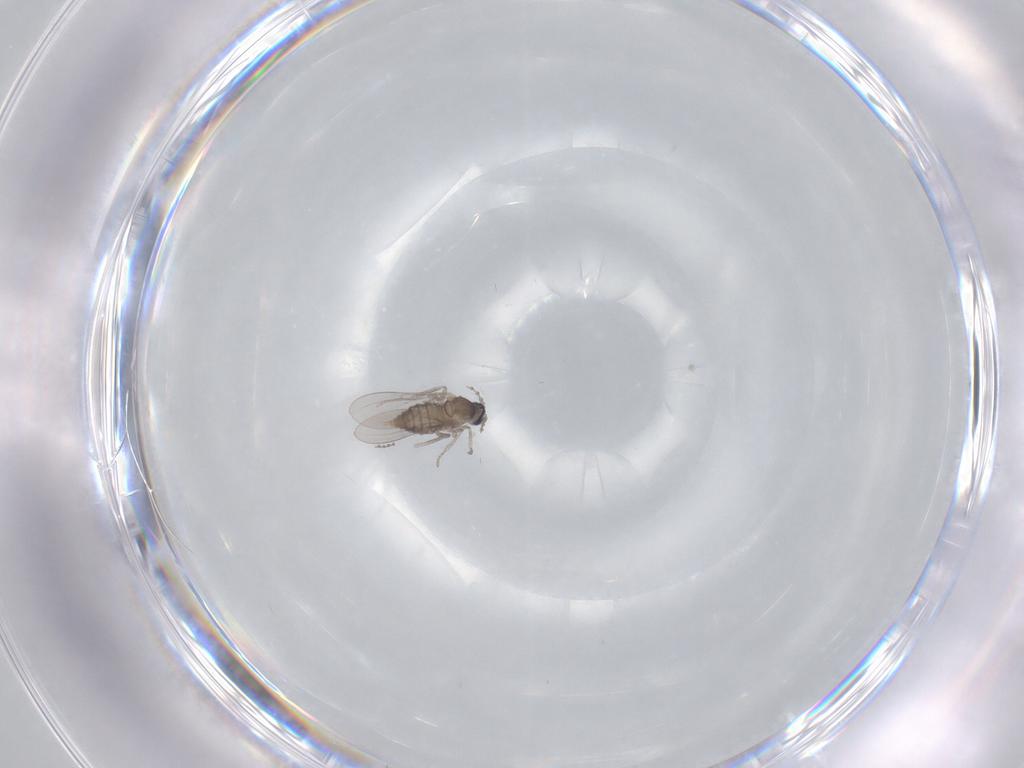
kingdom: Animalia
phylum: Arthropoda
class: Insecta
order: Diptera
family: Cecidomyiidae
